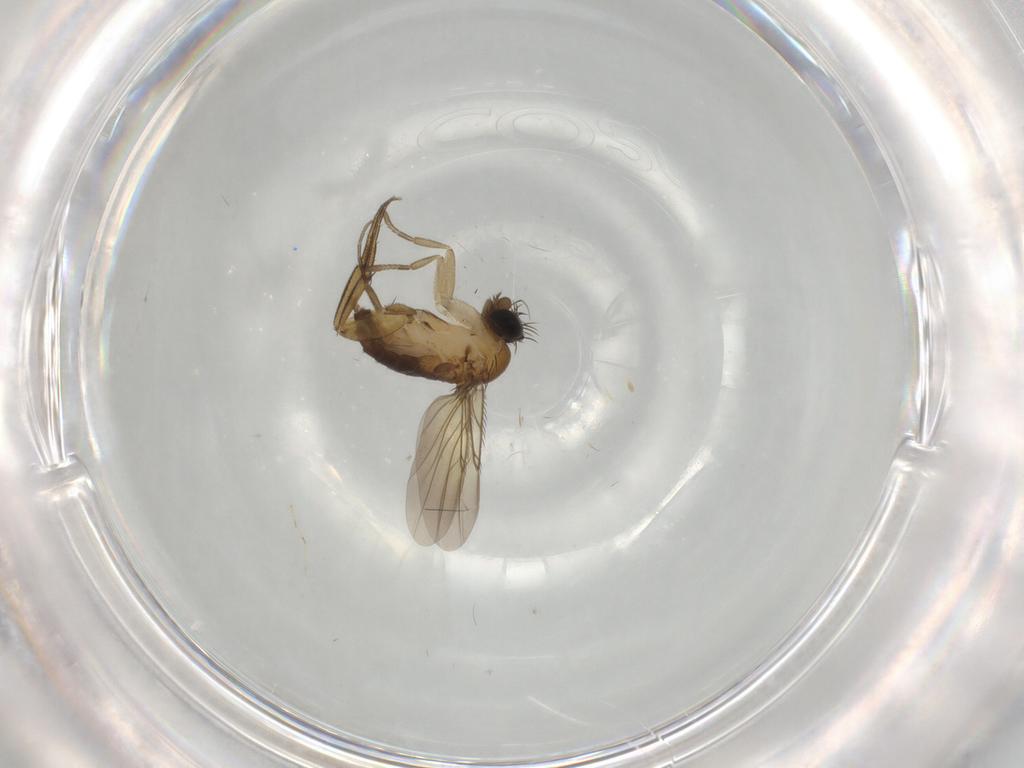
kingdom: Animalia
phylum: Arthropoda
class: Insecta
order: Diptera
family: Phoridae
